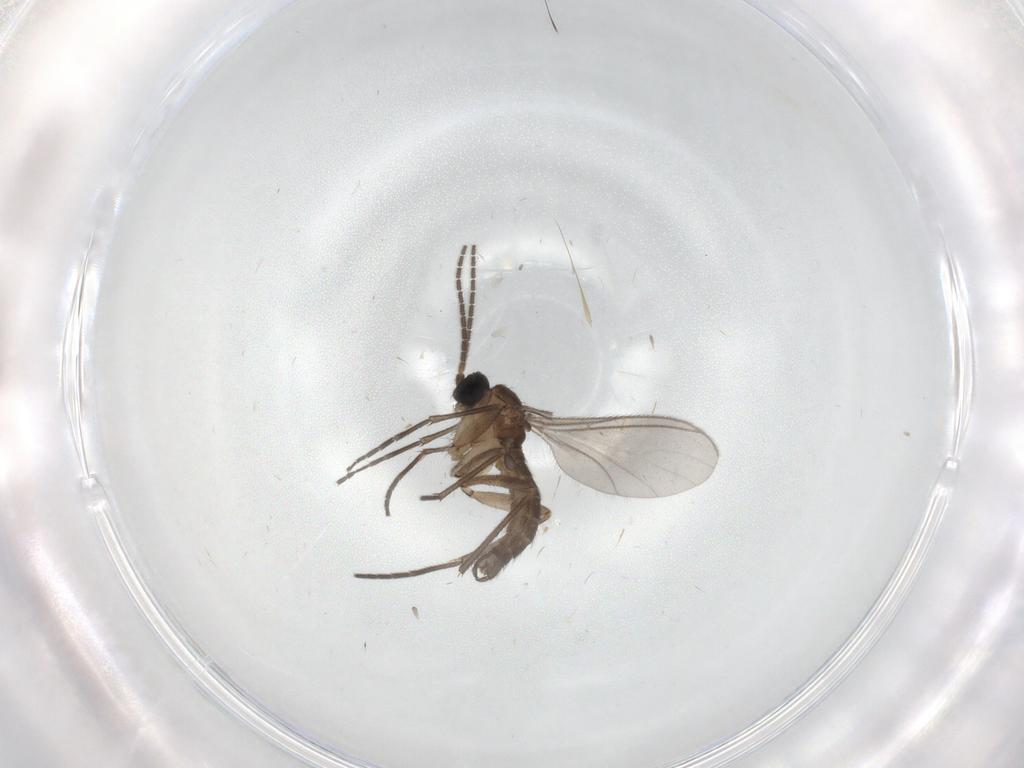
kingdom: Animalia
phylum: Arthropoda
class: Insecta
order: Diptera
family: Sciaridae
